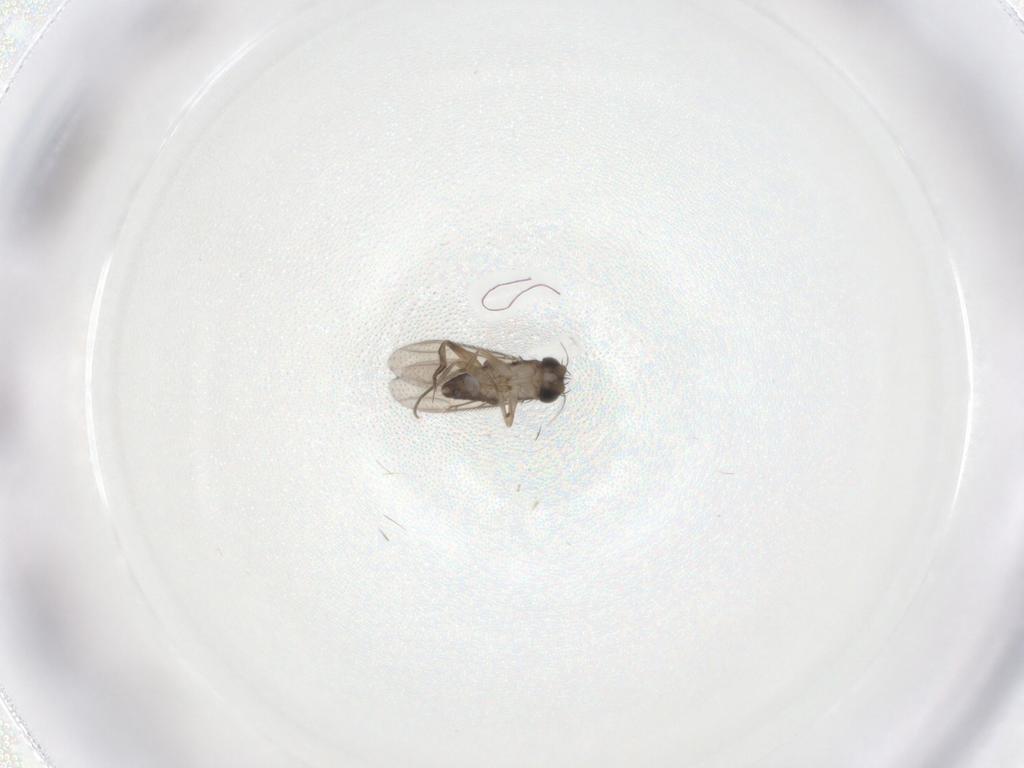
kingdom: Animalia
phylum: Arthropoda
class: Insecta
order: Diptera
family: Phoridae
